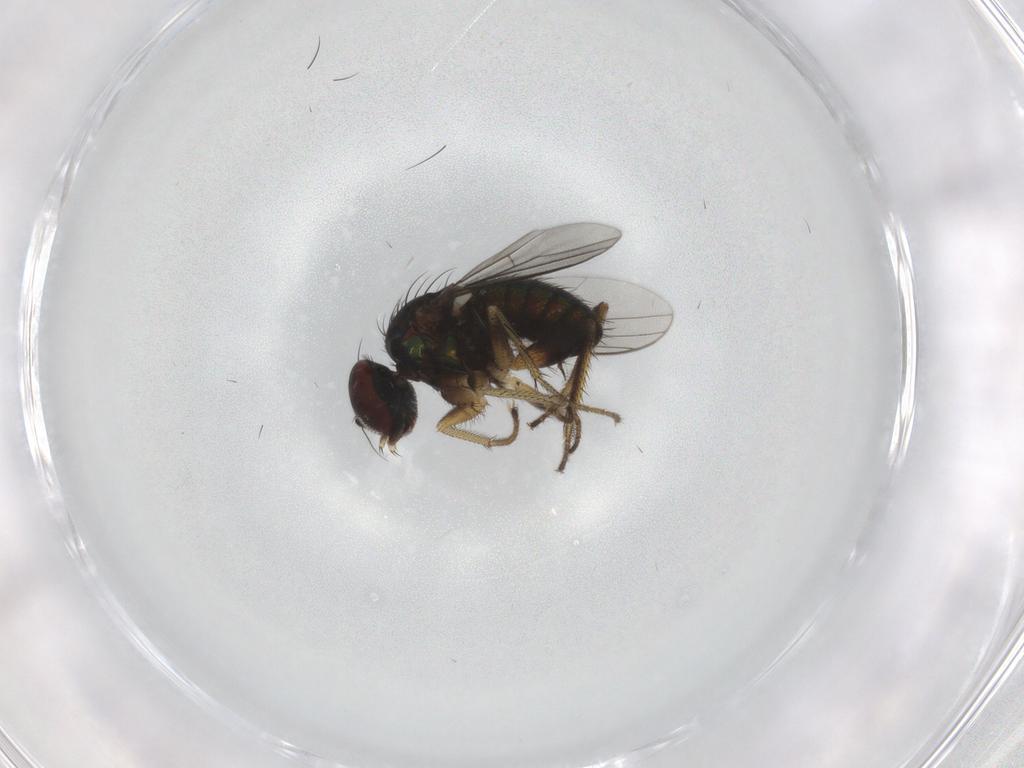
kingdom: Animalia
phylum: Arthropoda
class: Insecta
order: Diptera
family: Dolichopodidae
